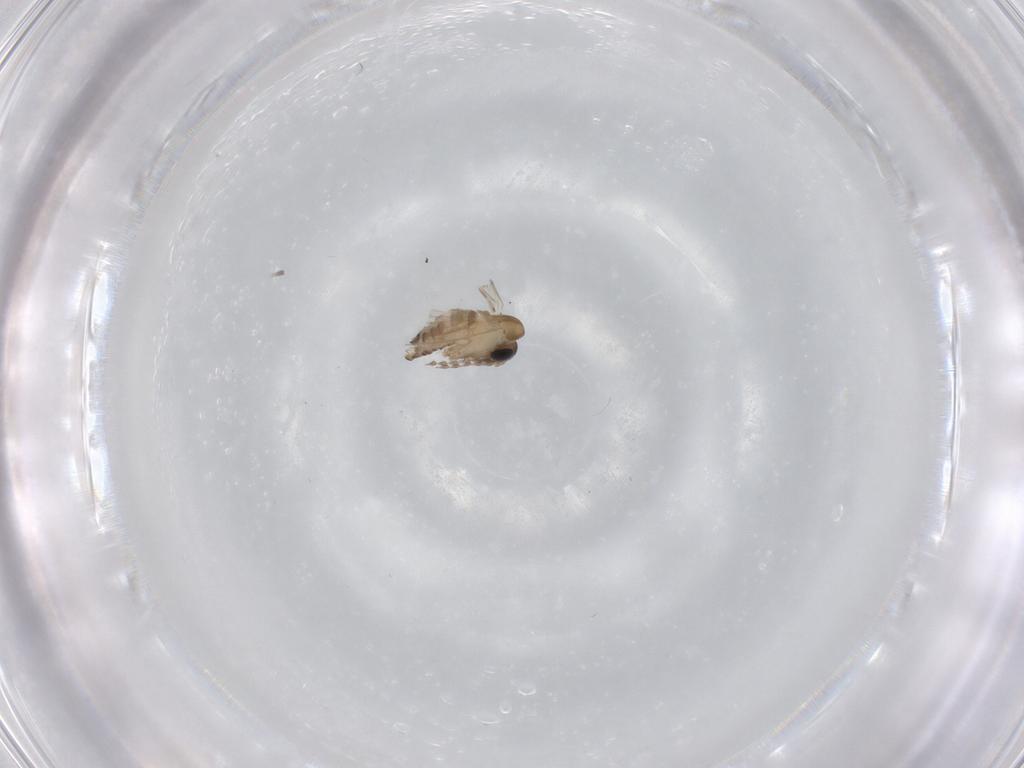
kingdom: Animalia
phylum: Arthropoda
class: Insecta
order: Diptera
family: Psychodidae
